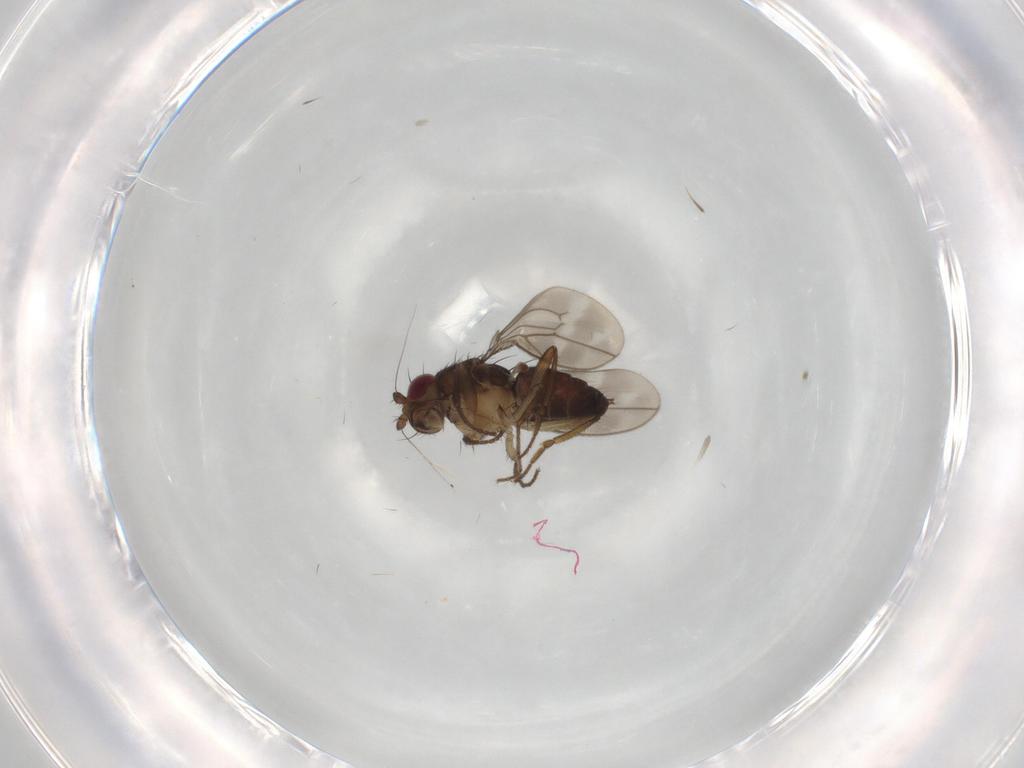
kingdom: Animalia
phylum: Arthropoda
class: Insecta
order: Diptera
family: Sphaeroceridae
